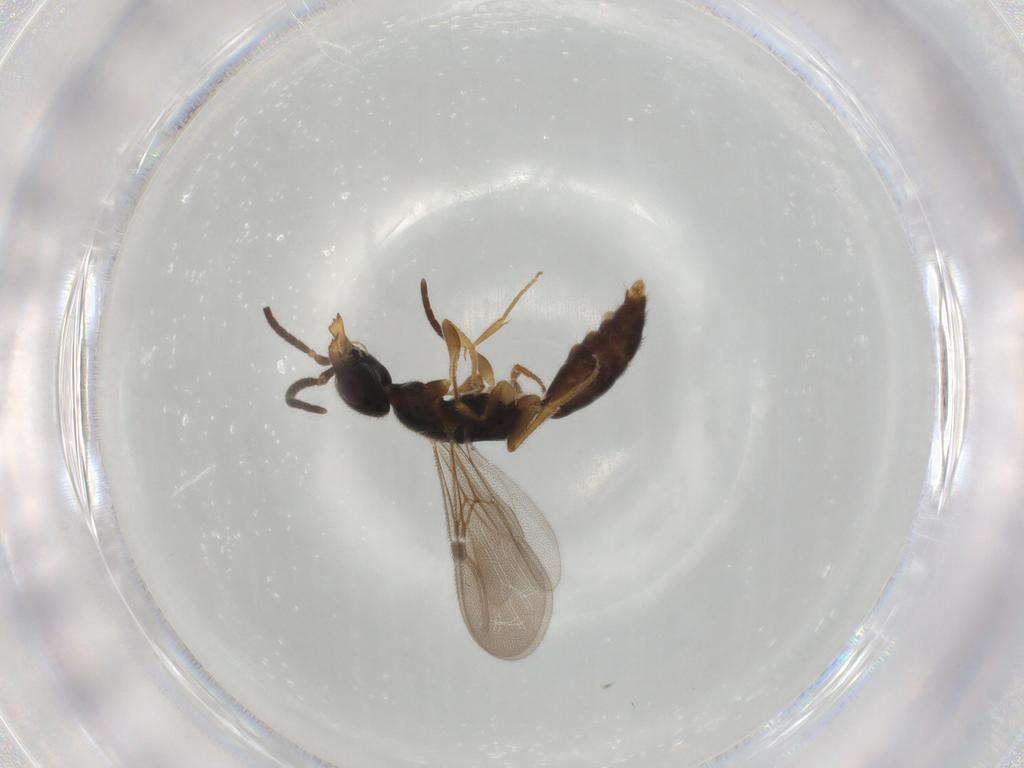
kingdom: Animalia
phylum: Arthropoda
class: Insecta
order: Hymenoptera
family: Bethylidae
